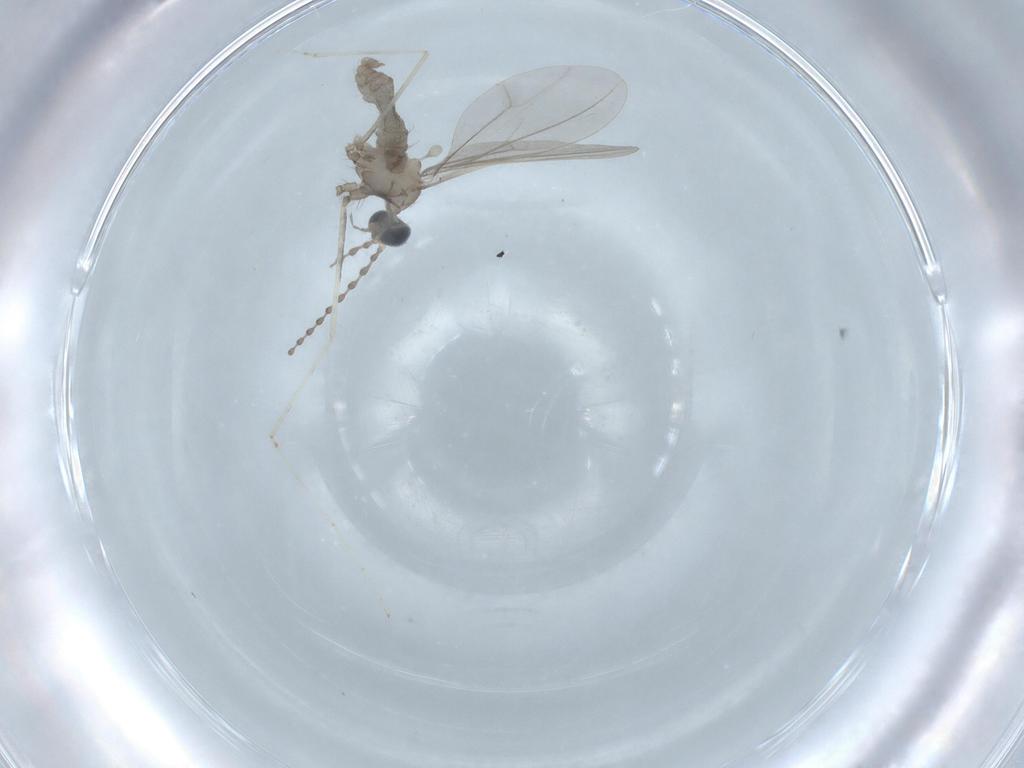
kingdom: Animalia
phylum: Arthropoda
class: Insecta
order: Diptera
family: Cecidomyiidae
